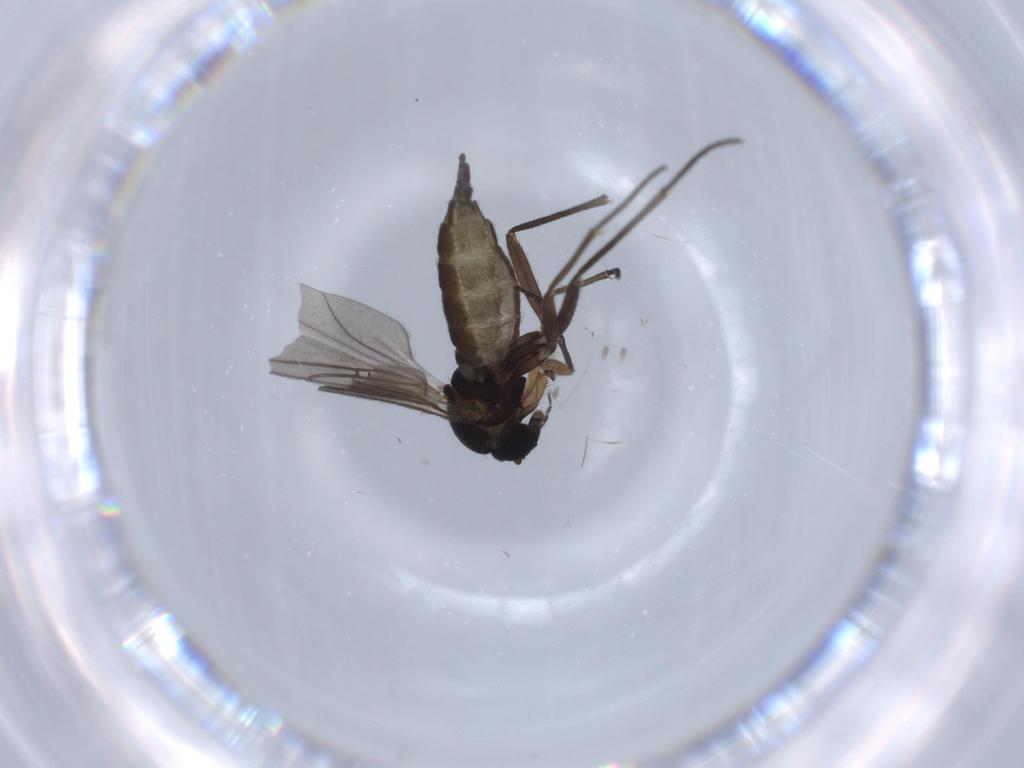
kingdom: Animalia
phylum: Arthropoda
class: Insecta
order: Diptera
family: Sciaridae
